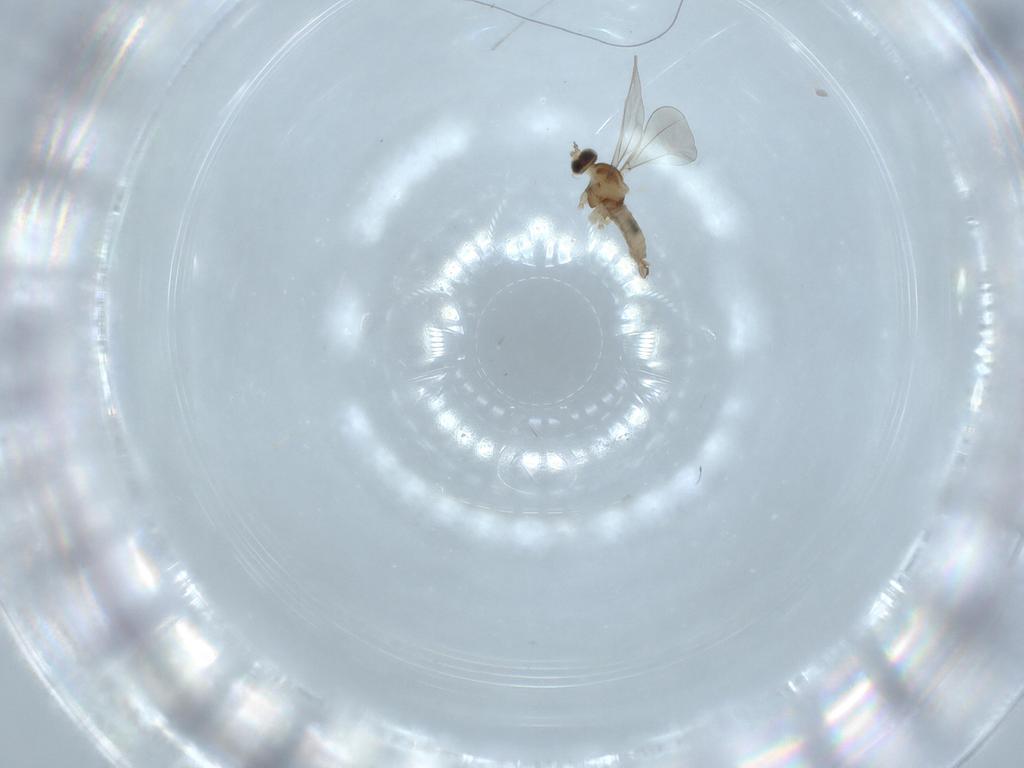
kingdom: Animalia
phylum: Arthropoda
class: Insecta
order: Diptera
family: Cecidomyiidae
